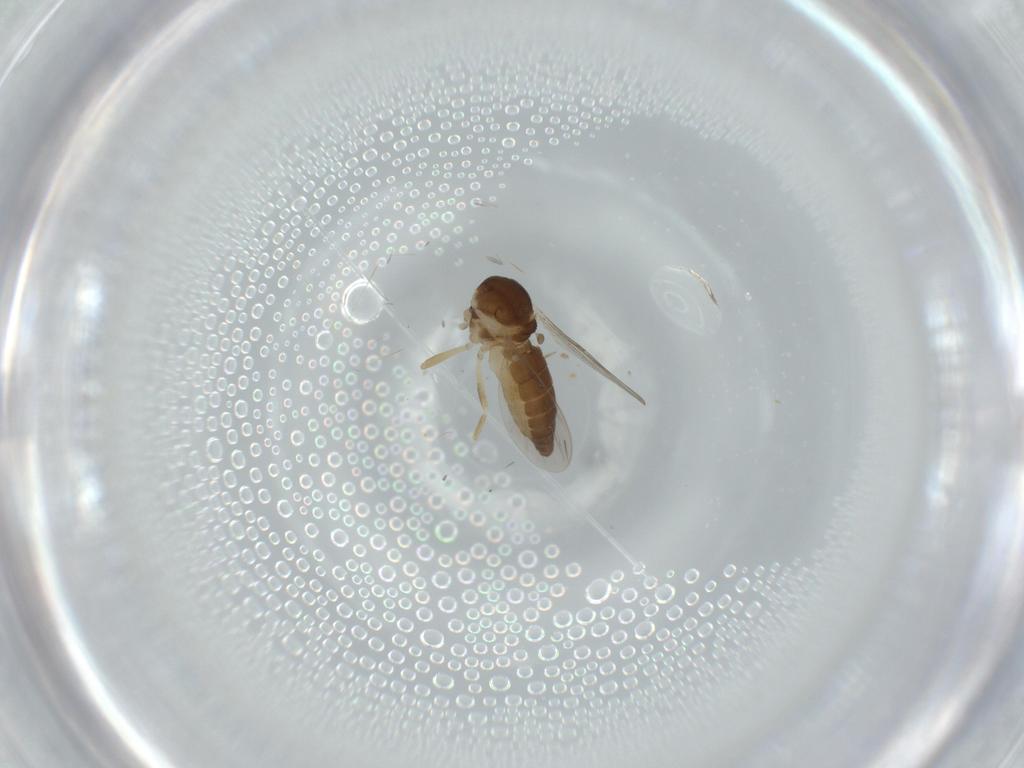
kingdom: Animalia
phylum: Arthropoda
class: Insecta
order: Diptera
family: Ceratopogonidae
